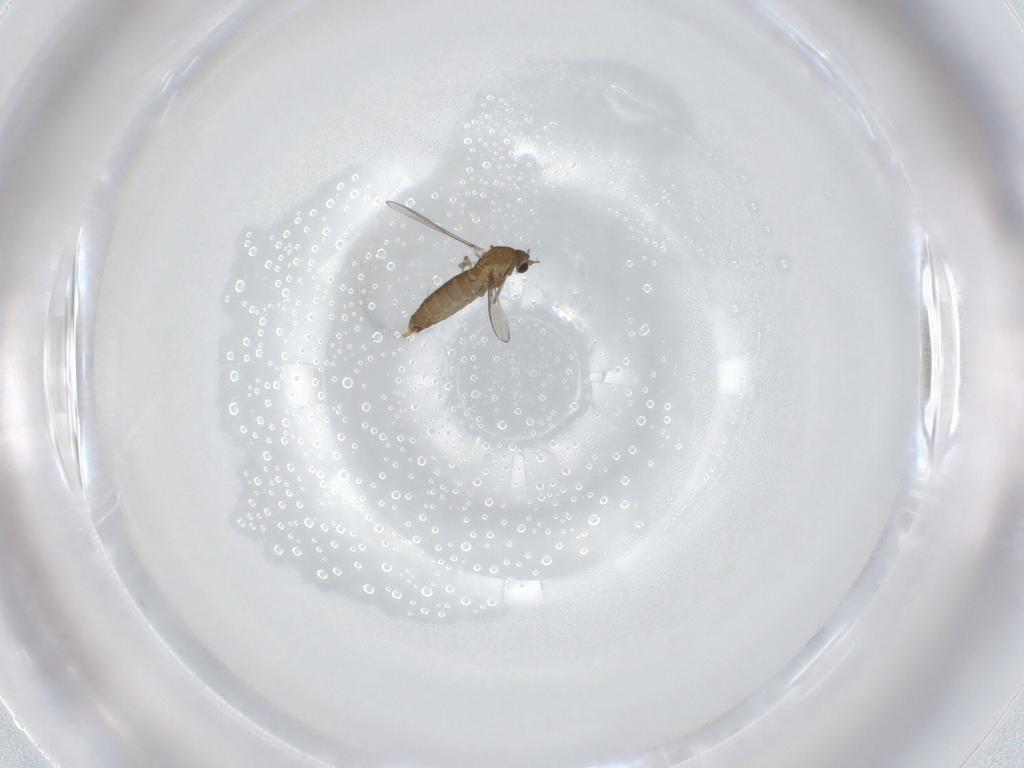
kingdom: Animalia
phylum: Arthropoda
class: Insecta
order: Diptera
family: Chironomidae
